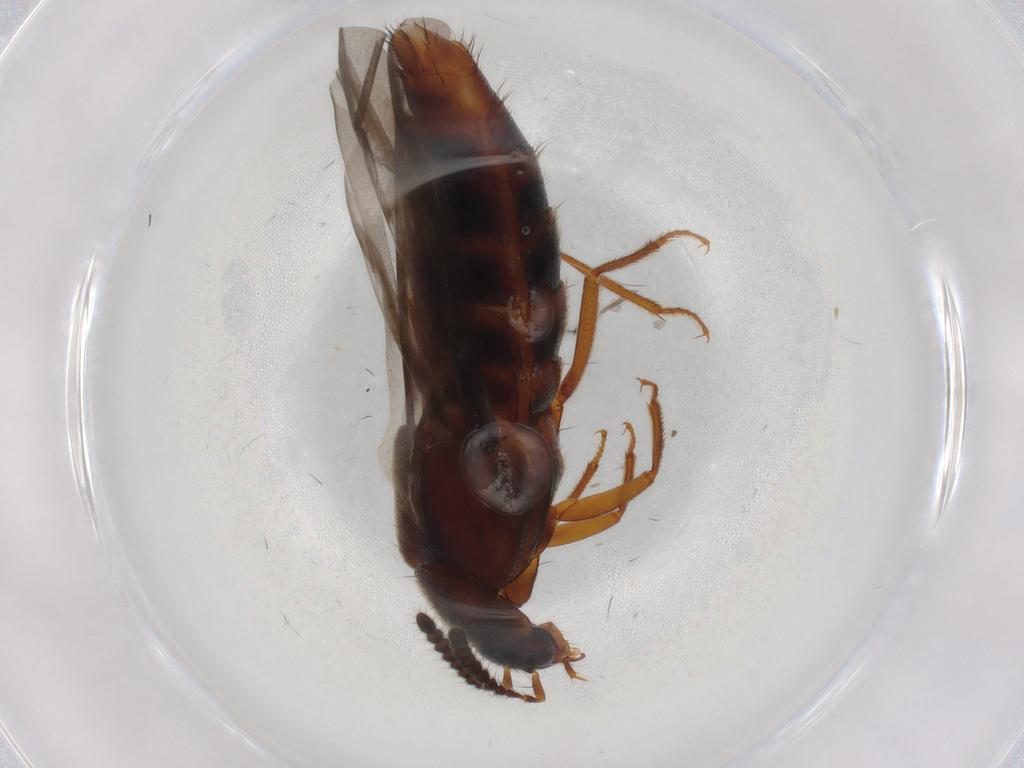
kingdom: Animalia
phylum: Arthropoda
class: Insecta
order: Coleoptera
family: Staphylinidae
